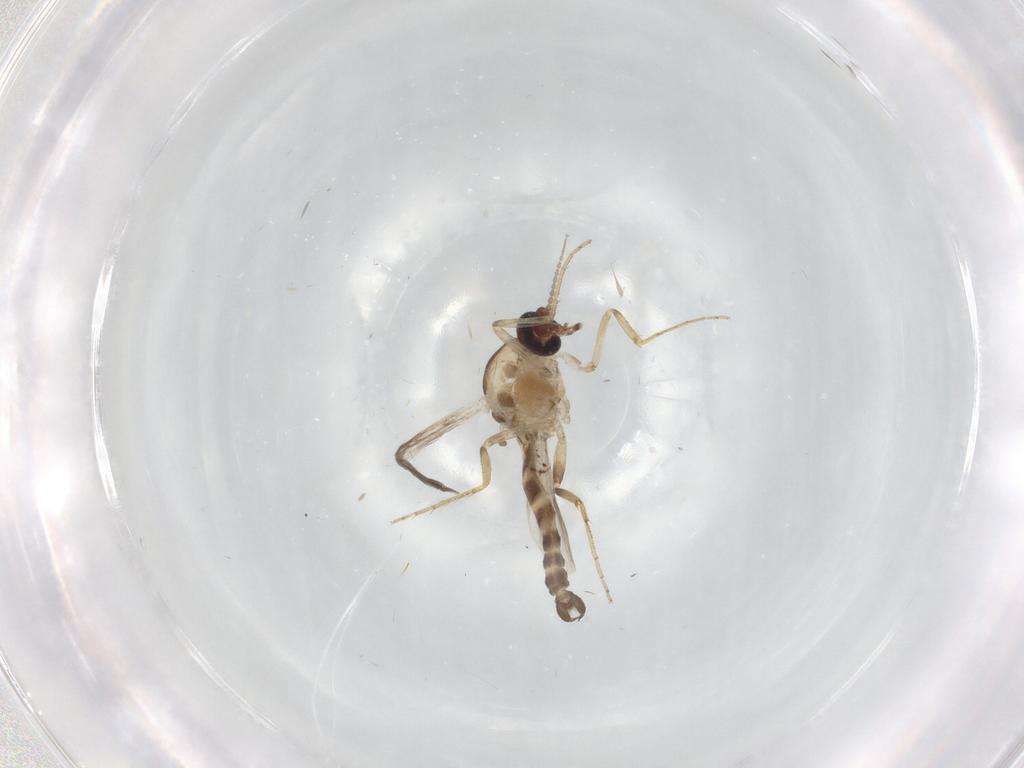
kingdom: Animalia
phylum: Arthropoda
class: Insecta
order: Diptera
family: Ceratopogonidae
